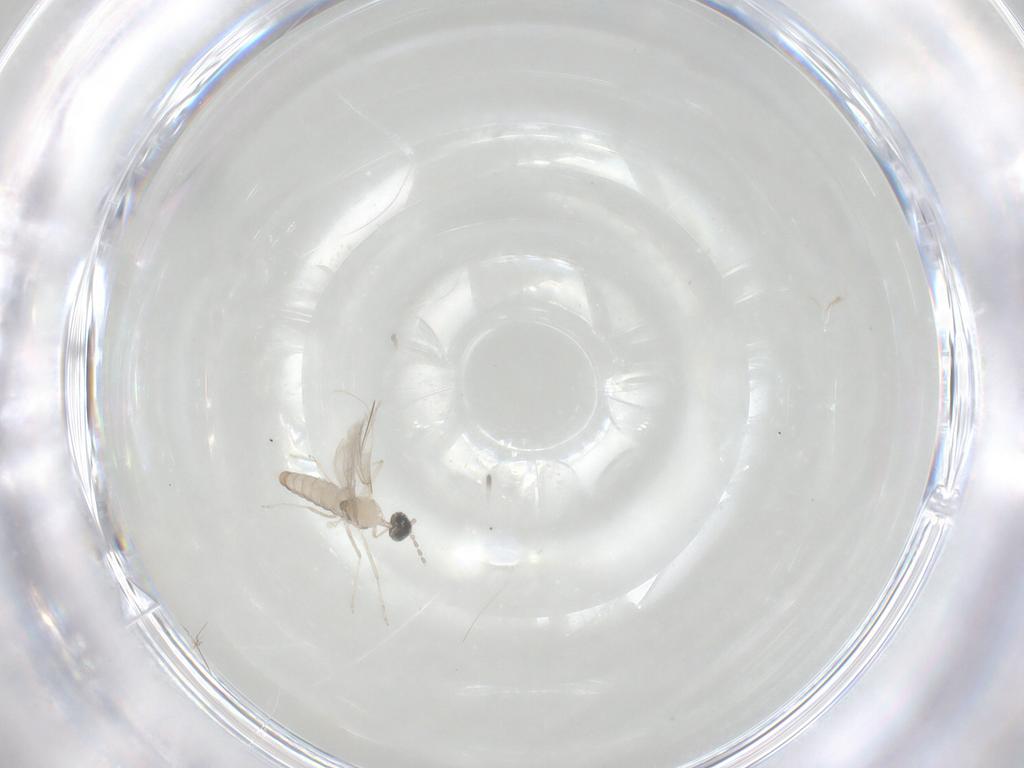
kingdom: Animalia
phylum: Arthropoda
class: Insecta
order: Diptera
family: Cecidomyiidae
